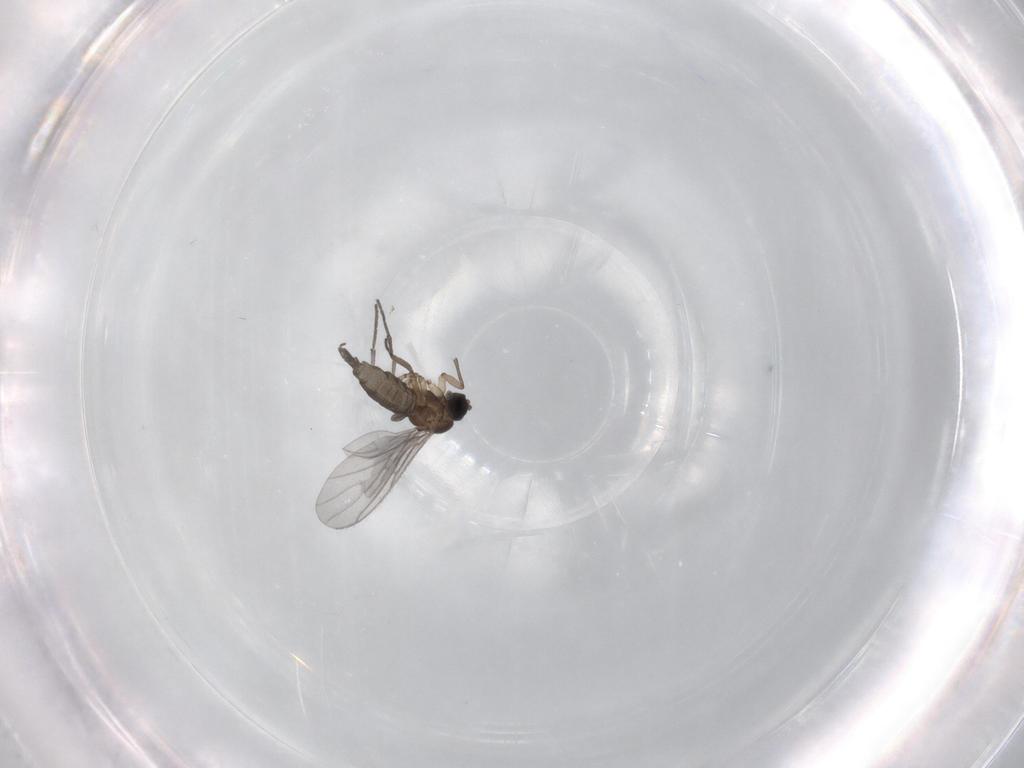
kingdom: Animalia
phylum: Arthropoda
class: Insecta
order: Diptera
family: Sciaridae
